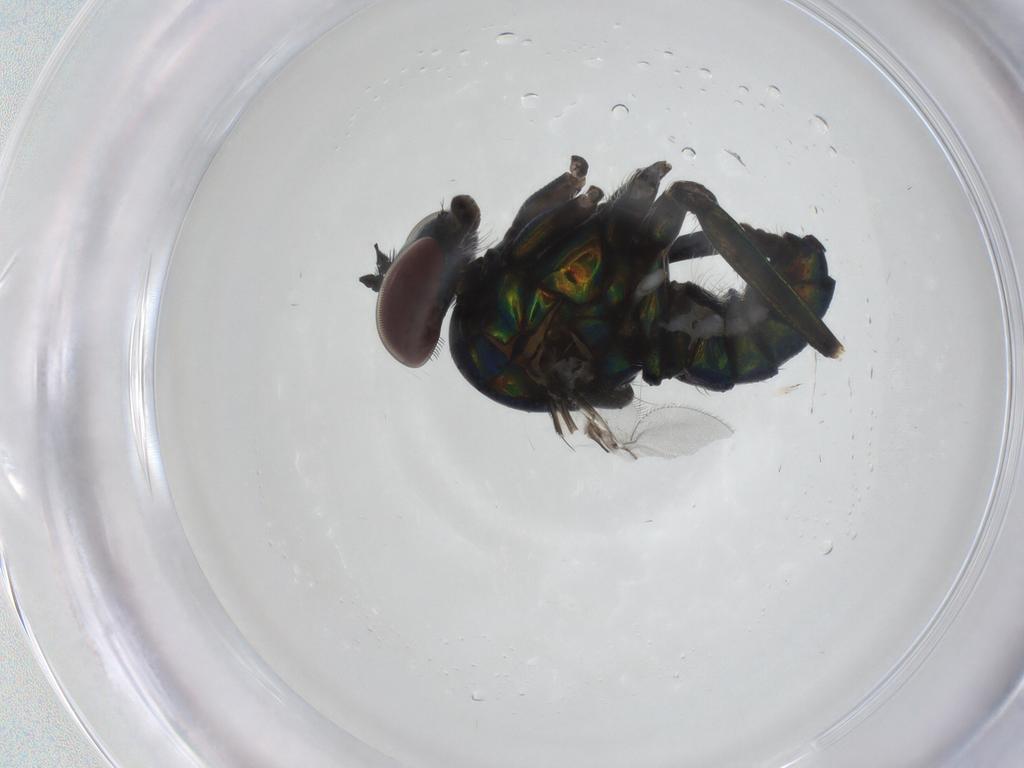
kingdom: Animalia
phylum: Arthropoda
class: Insecta
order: Diptera
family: Dolichopodidae
